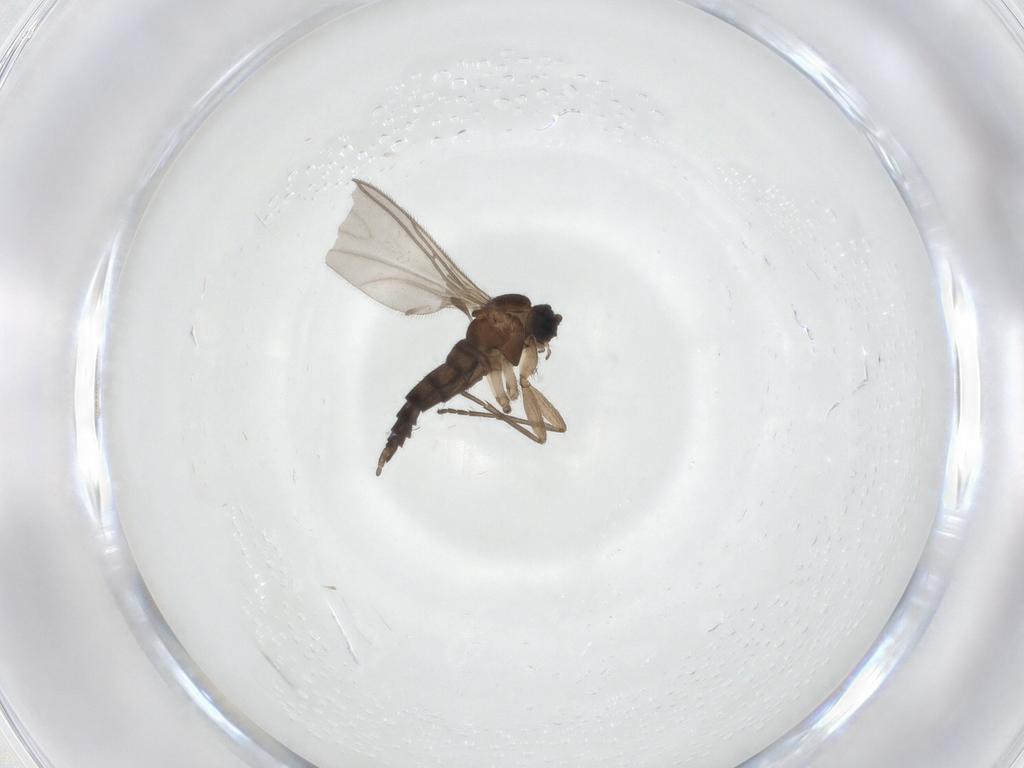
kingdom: Animalia
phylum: Arthropoda
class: Insecta
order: Diptera
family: Sciaridae
